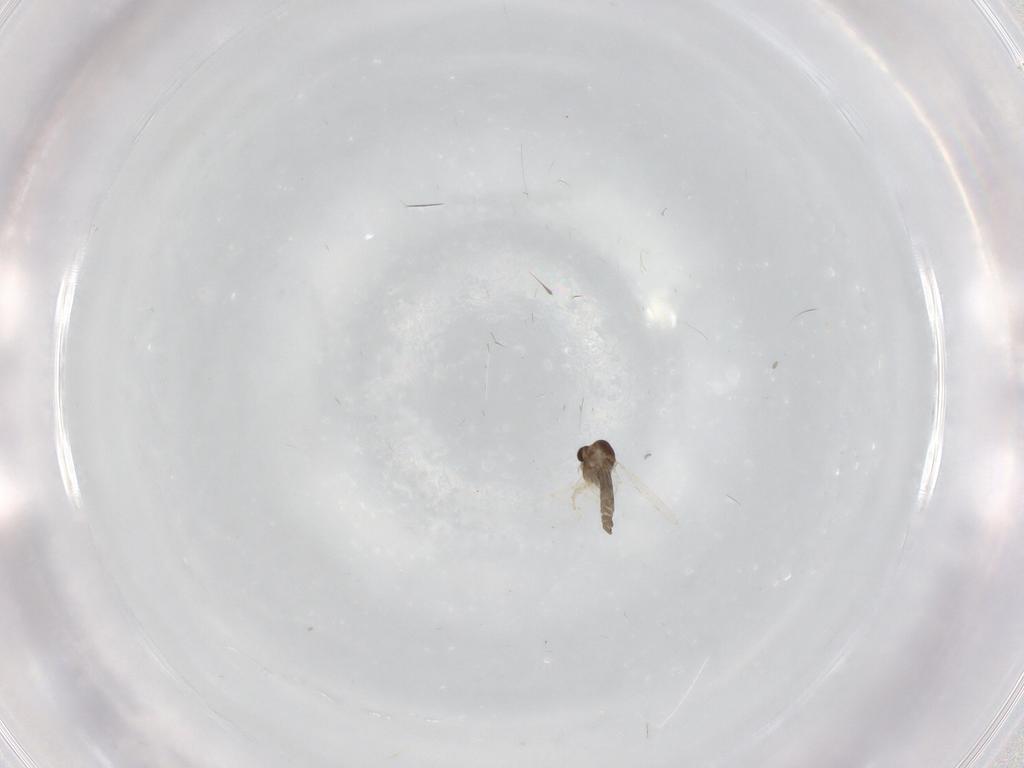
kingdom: Animalia
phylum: Arthropoda
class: Insecta
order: Diptera
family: Chironomidae
